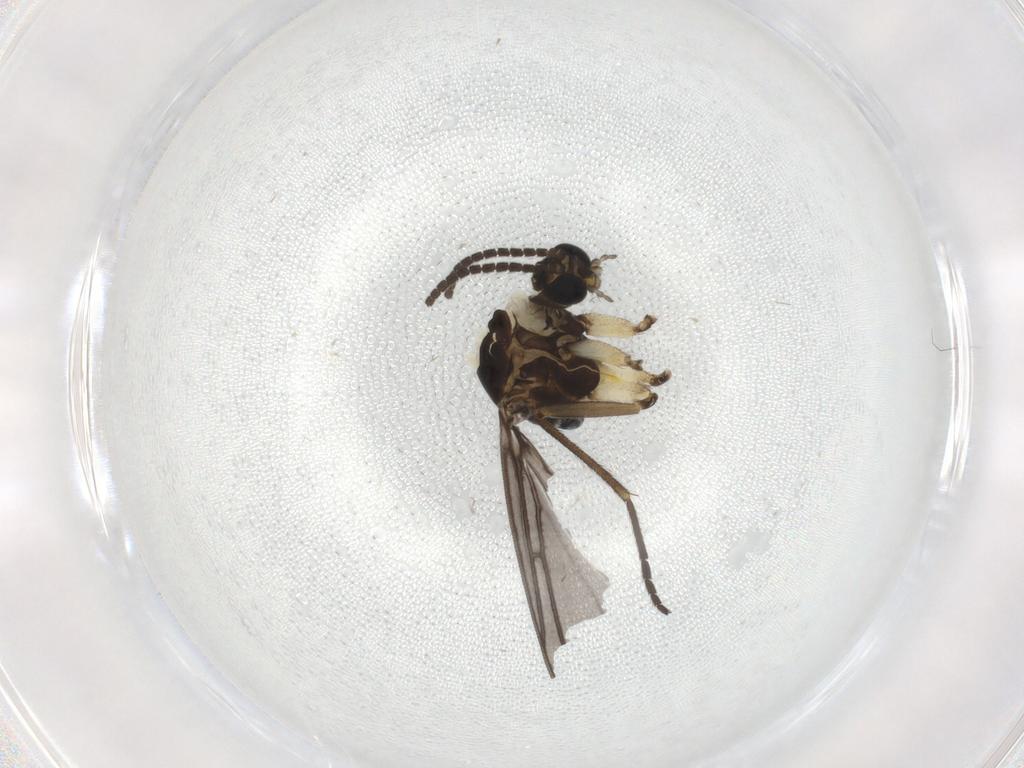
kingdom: Animalia
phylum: Arthropoda
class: Insecta
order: Diptera
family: Sciaridae
